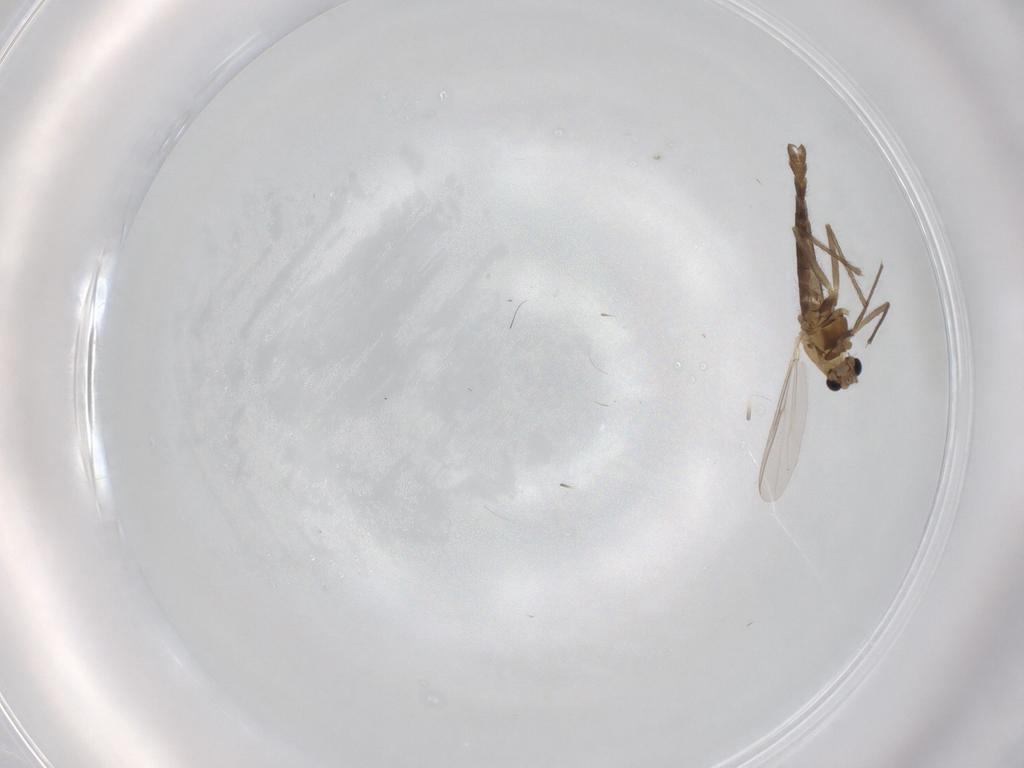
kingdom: Animalia
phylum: Arthropoda
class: Insecta
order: Diptera
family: Chironomidae
